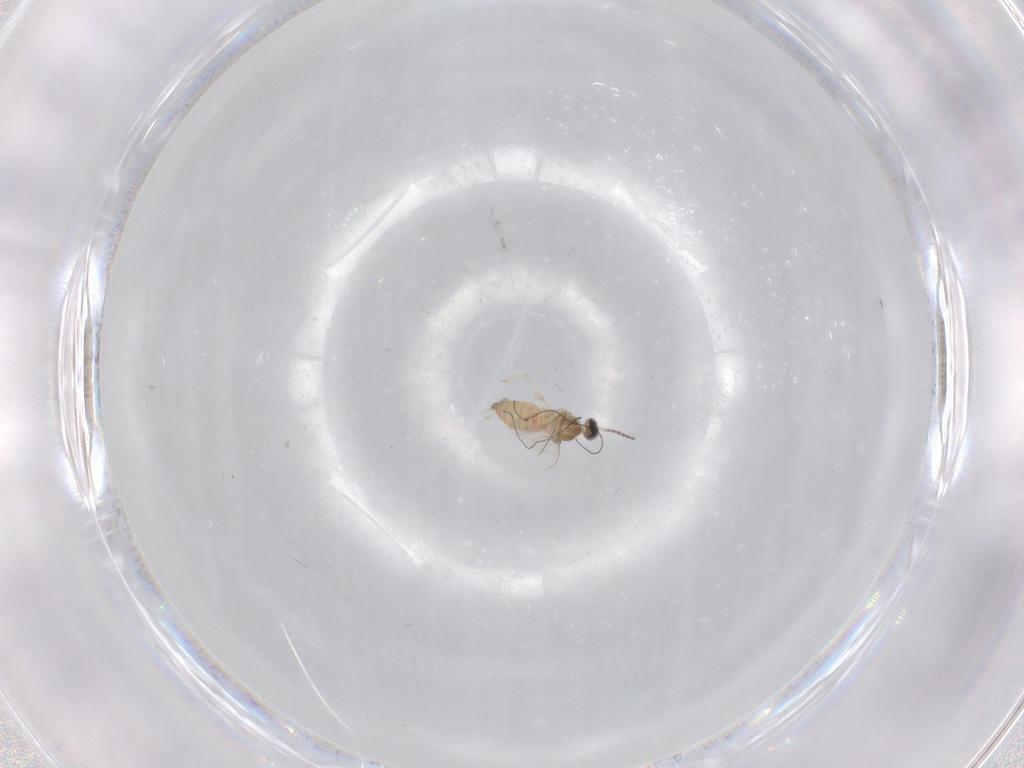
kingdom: Animalia
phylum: Arthropoda
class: Insecta
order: Diptera
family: Cecidomyiidae
